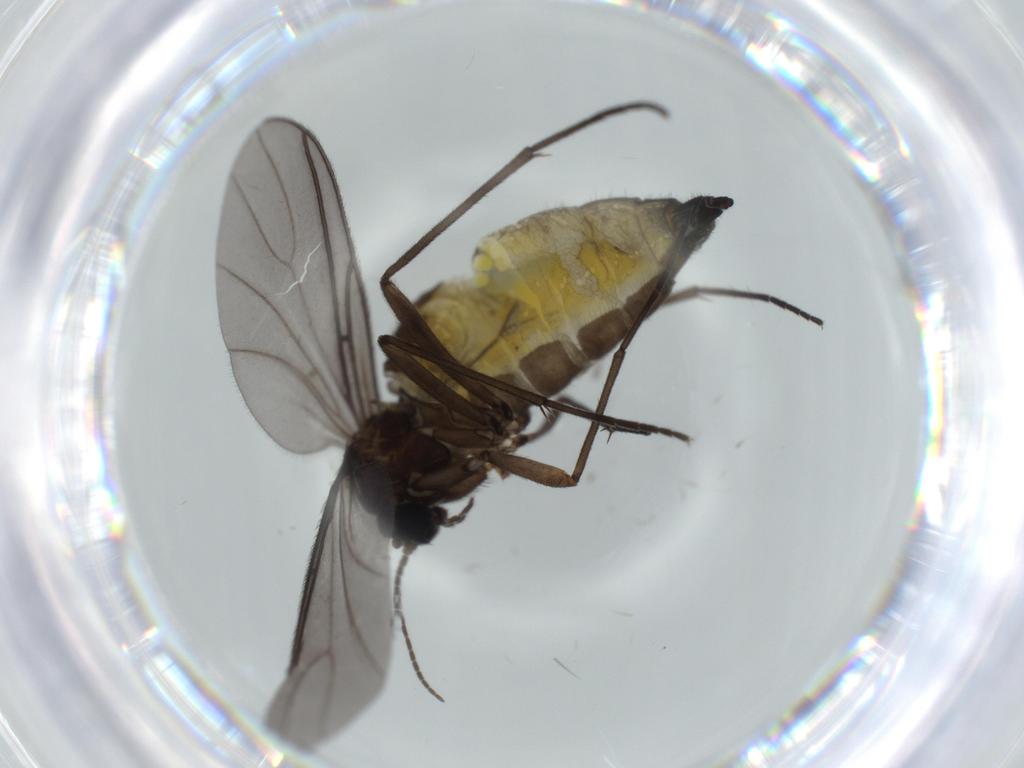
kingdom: Animalia
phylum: Arthropoda
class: Insecta
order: Diptera
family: Sciaridae
